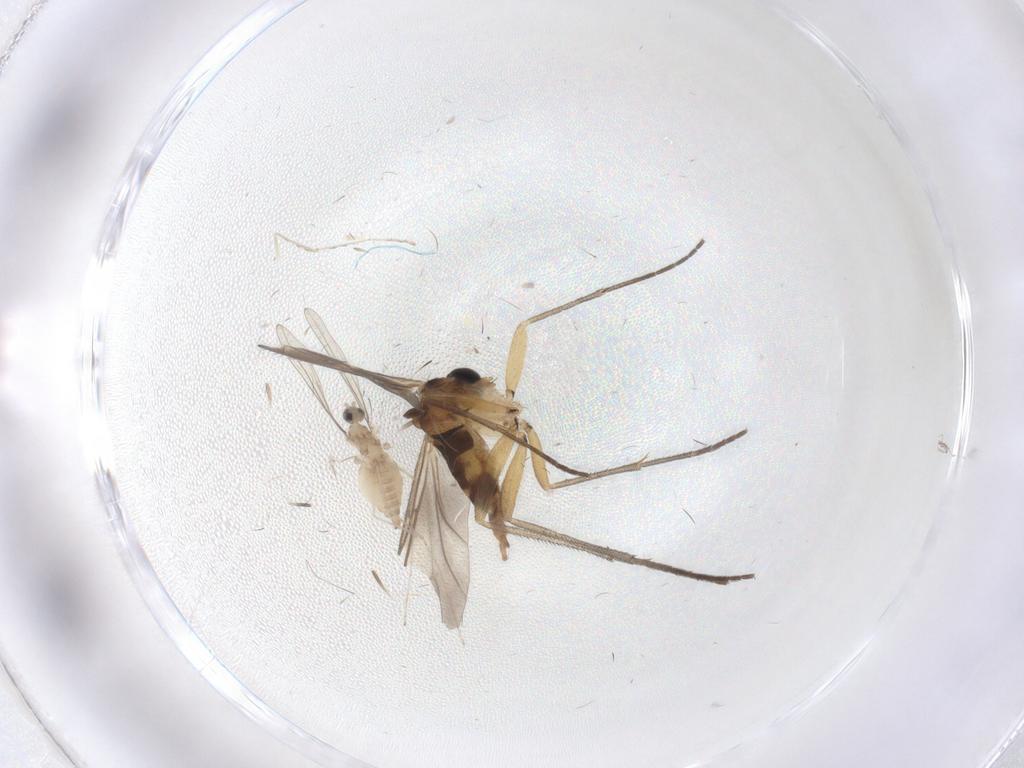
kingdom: Animalia
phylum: Arthropoda
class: Insecta
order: Diptera
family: Cecidomyiidae
